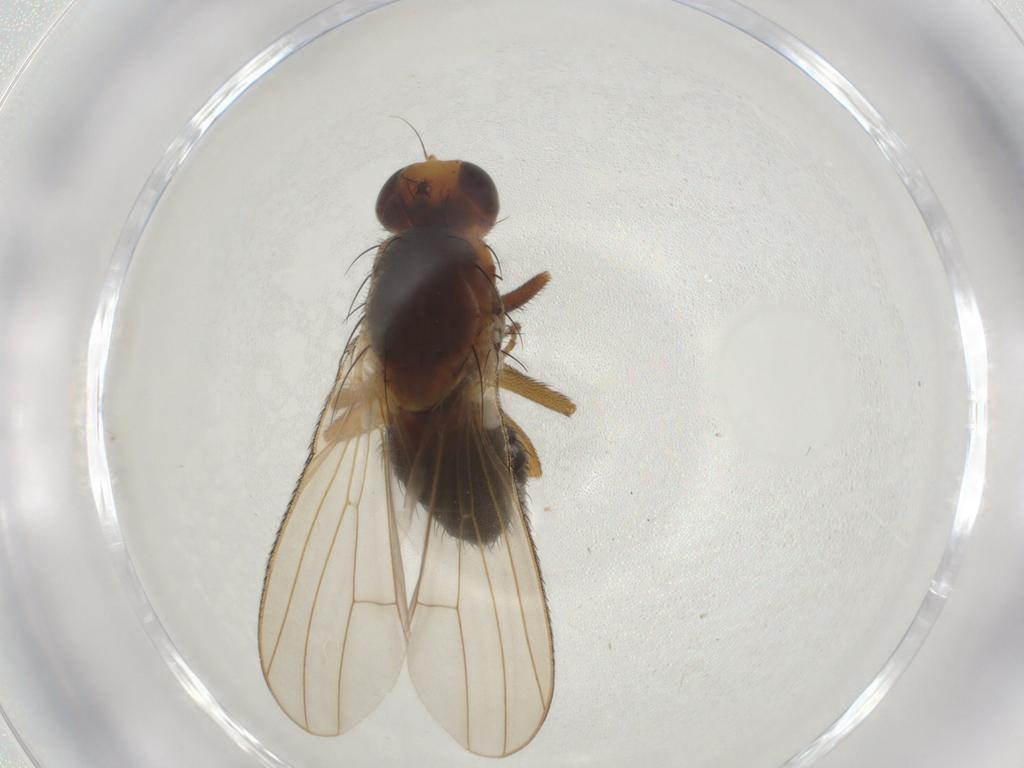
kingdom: Animalia
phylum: Arthropoda
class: Insecta
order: Diptera
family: Heleomyzidae
